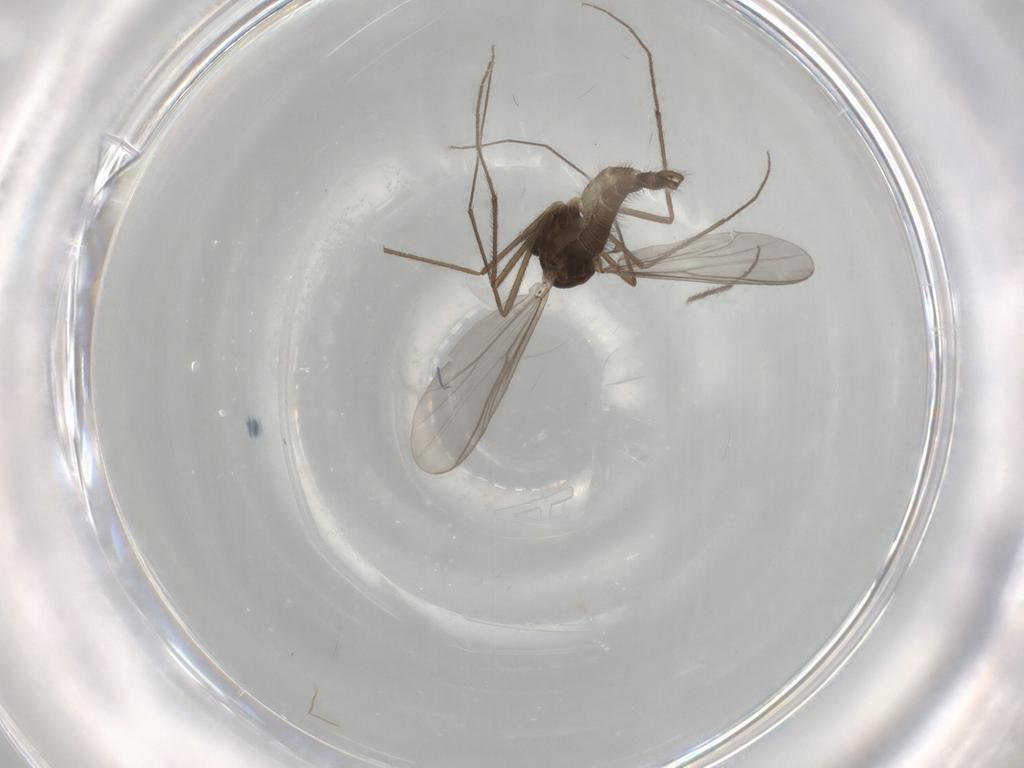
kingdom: Animalia
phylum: Arthropoda
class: Insecta
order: Diptera
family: Chironomidae
